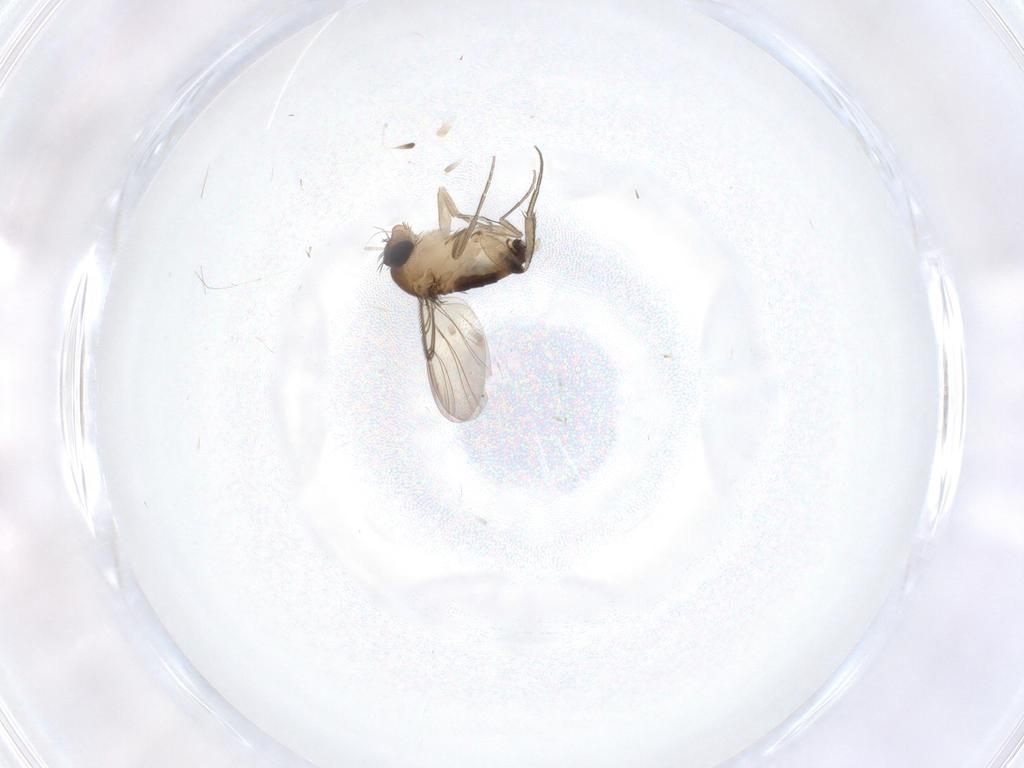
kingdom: Animalia
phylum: Arthropoda
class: Insecta
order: Diptera
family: Phoridae
